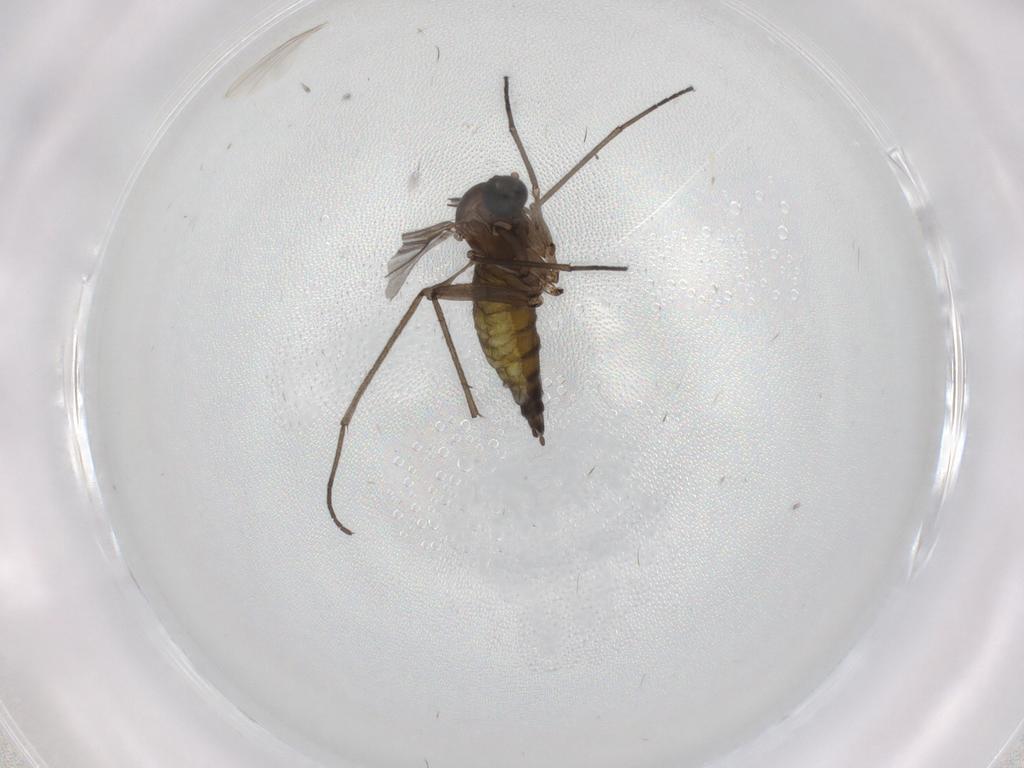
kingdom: Animalia
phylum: Arthropoda
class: Insecta
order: Diptera
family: Sciaridae
